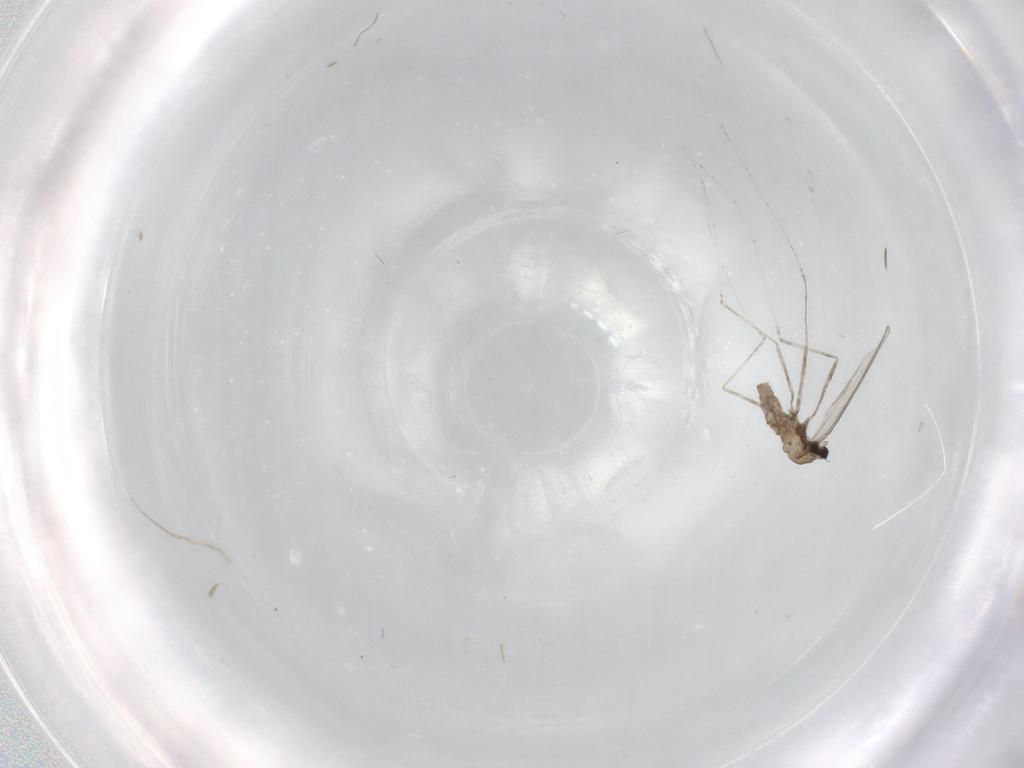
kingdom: Animalia
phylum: Arthropoda
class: Insecta
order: Diptera
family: Cecidomyiidae
